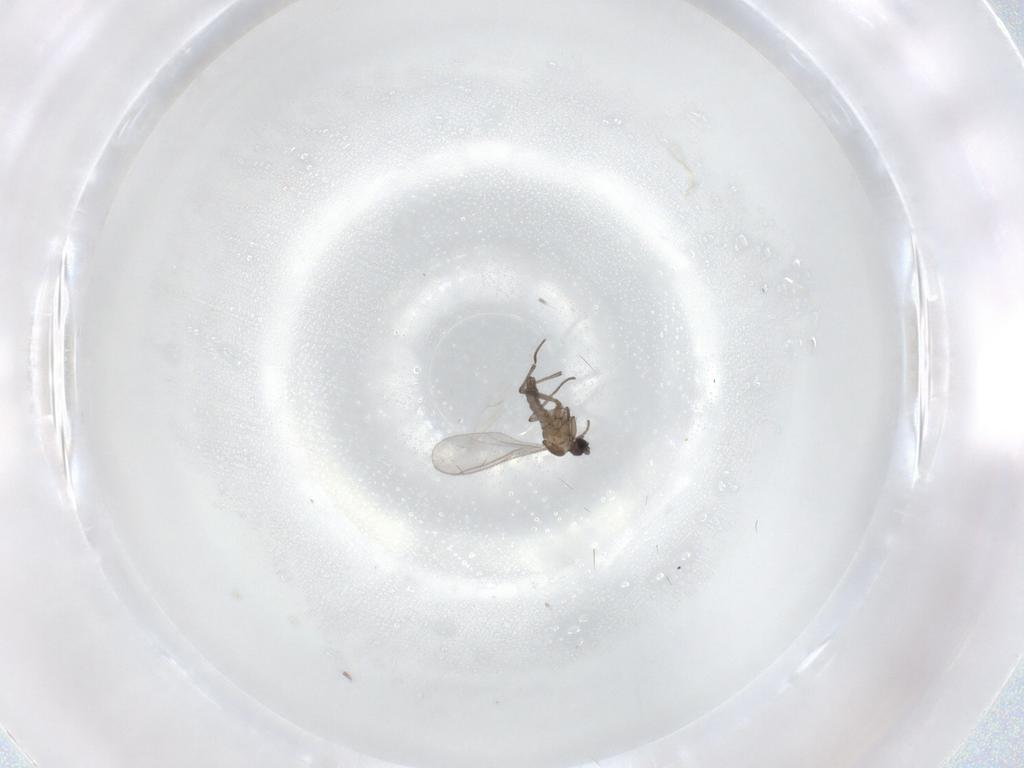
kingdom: Animalia
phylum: Arthropoda
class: Insecta
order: Diptera
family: Sciaridae
